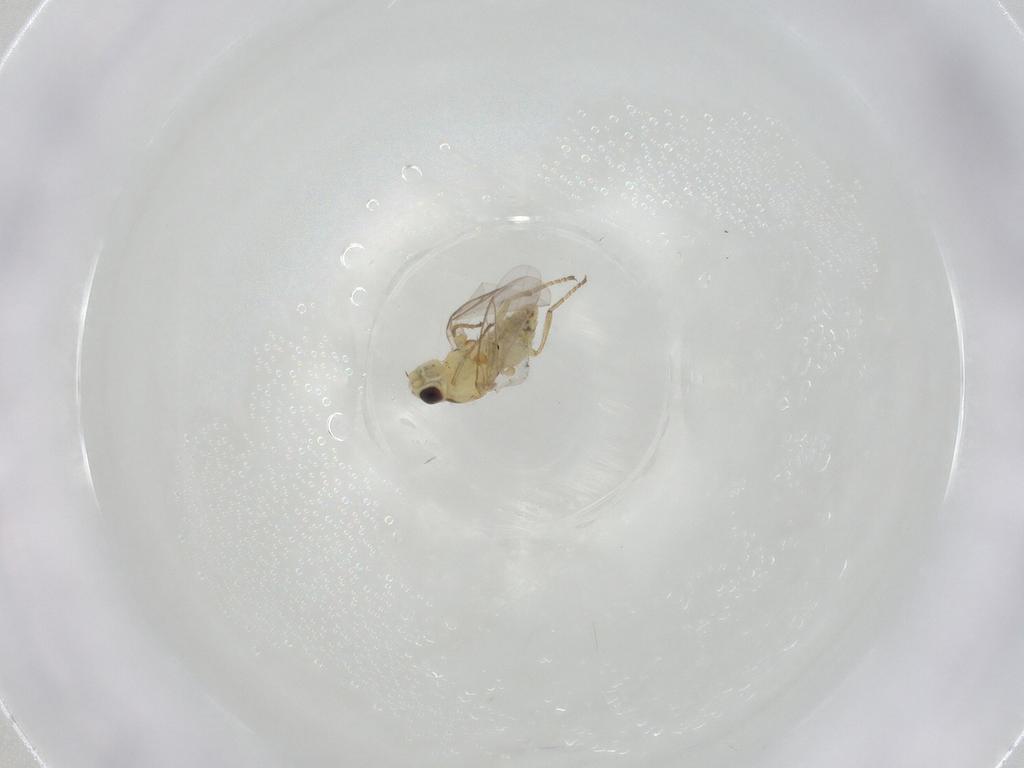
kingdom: Animalia
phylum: Arthropoda
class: Insecta
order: Diptera
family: Agromyzidae
